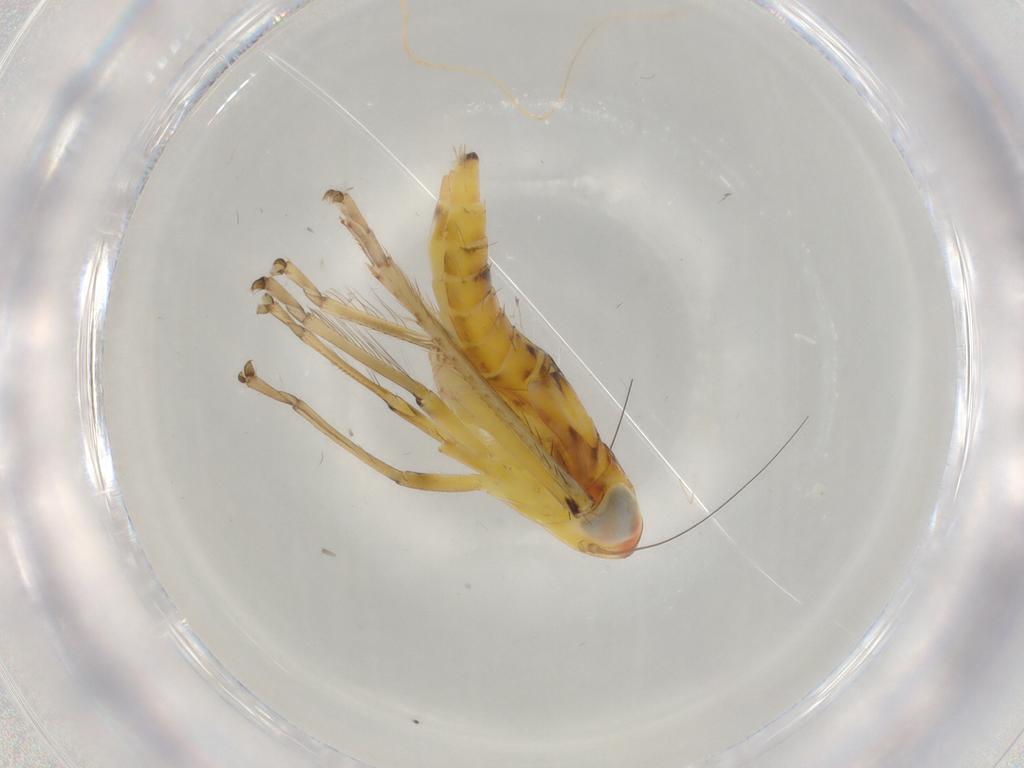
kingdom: Animalia
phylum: Arthropoda
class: Insecta
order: Hemiptera
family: Cicadellidae
